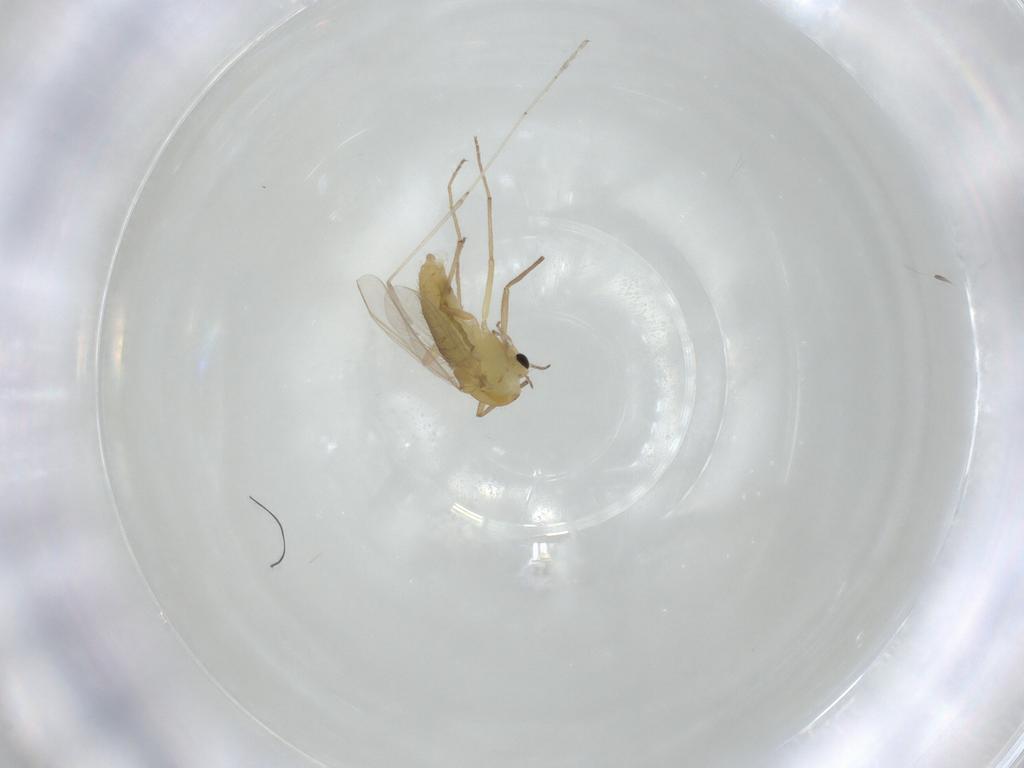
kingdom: Animalia
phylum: Arthropoda
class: Insecta
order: Diptera
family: Chironomidae
